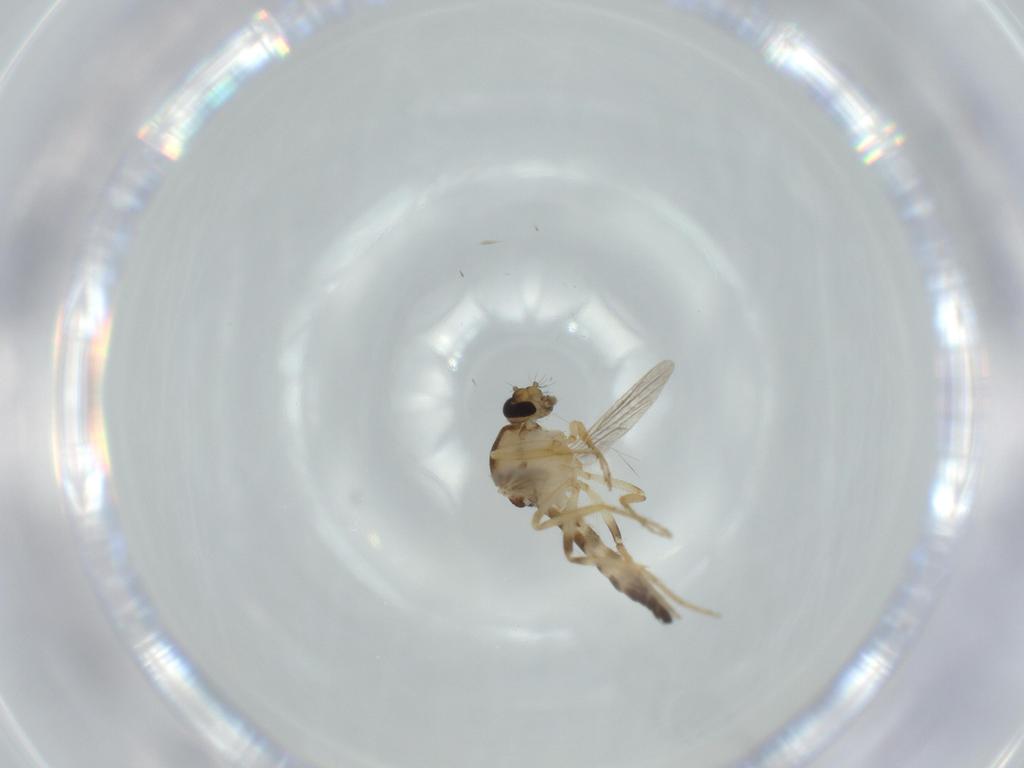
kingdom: Animalia
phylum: Arthropoda
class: Insecta
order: Diptera
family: Ceratopogonidae
